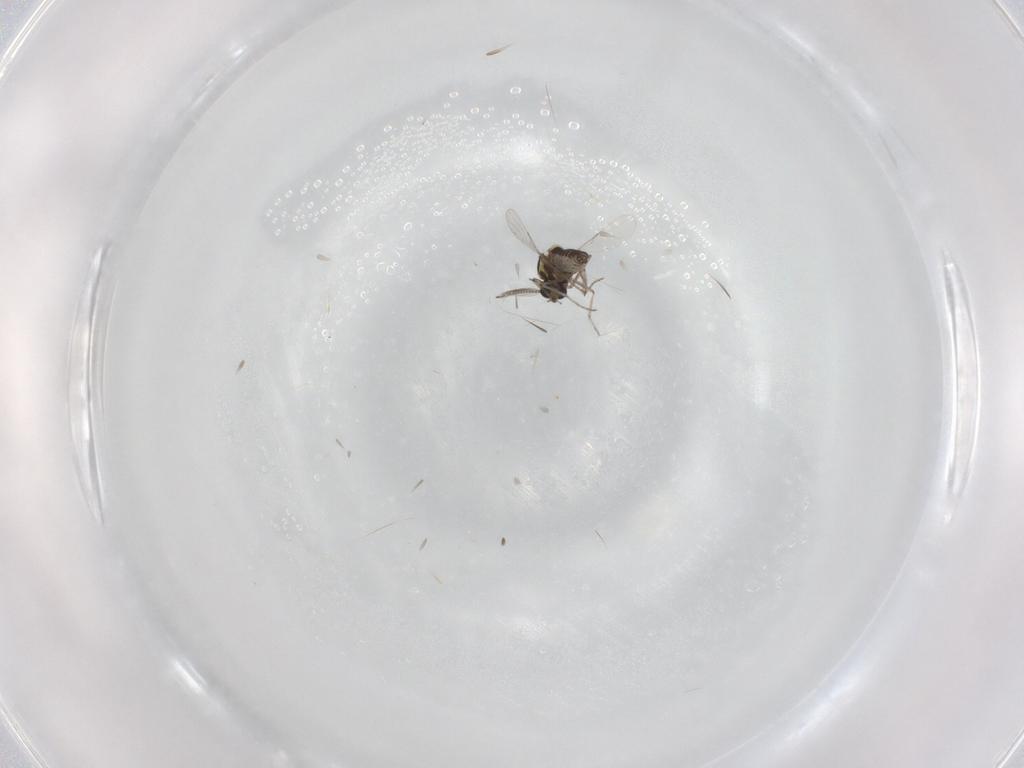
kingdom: Animalia
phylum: Arthropoda
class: Insecta
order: Diptera
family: Ceratopogonidae
